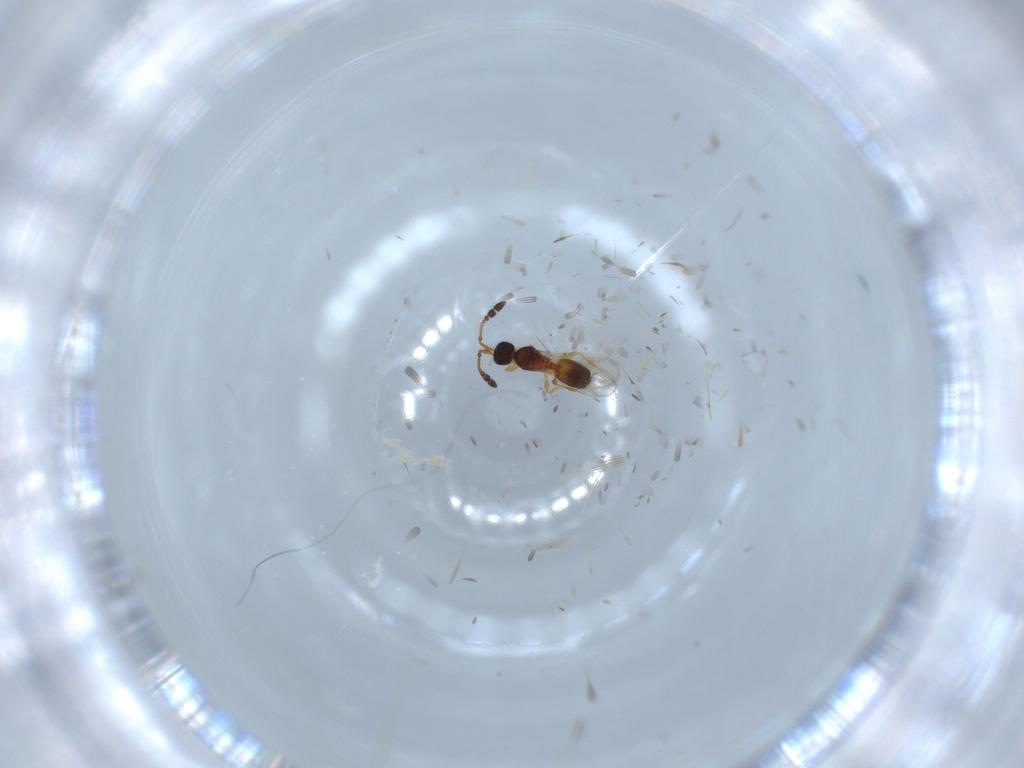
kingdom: Animalia
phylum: Arthropoda
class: Insecta
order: Hymenoptera
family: Diapriidae
